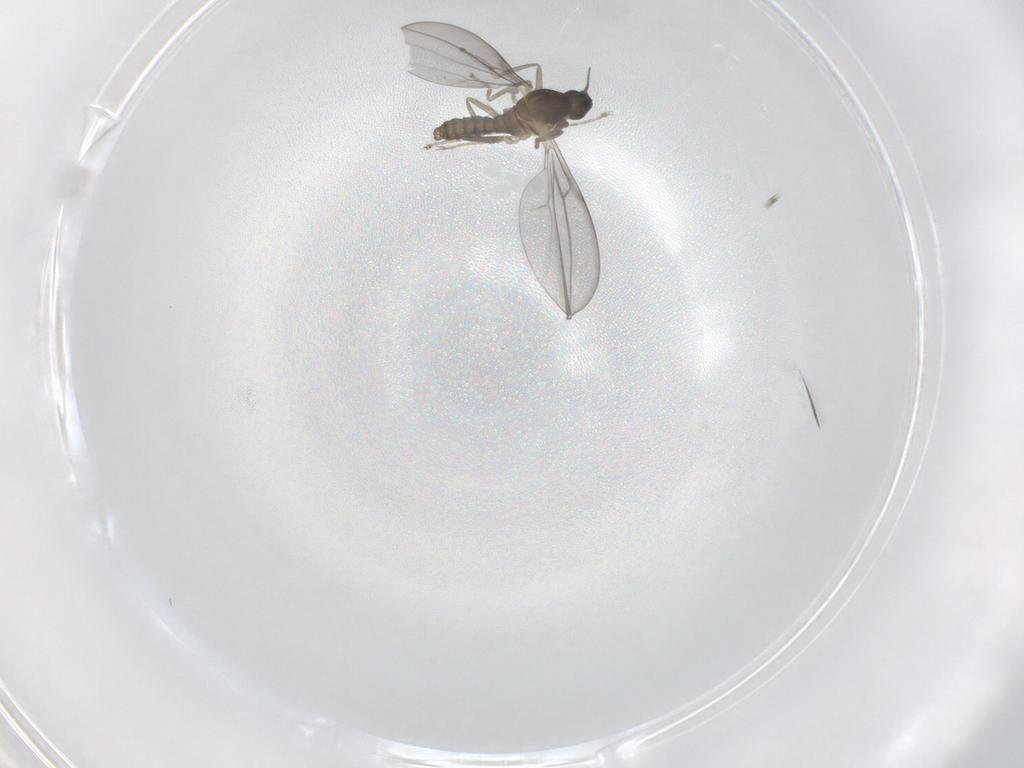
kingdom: Animalia
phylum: Arthropoda
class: Insecta
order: Diptera
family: Cecidomyiidae
